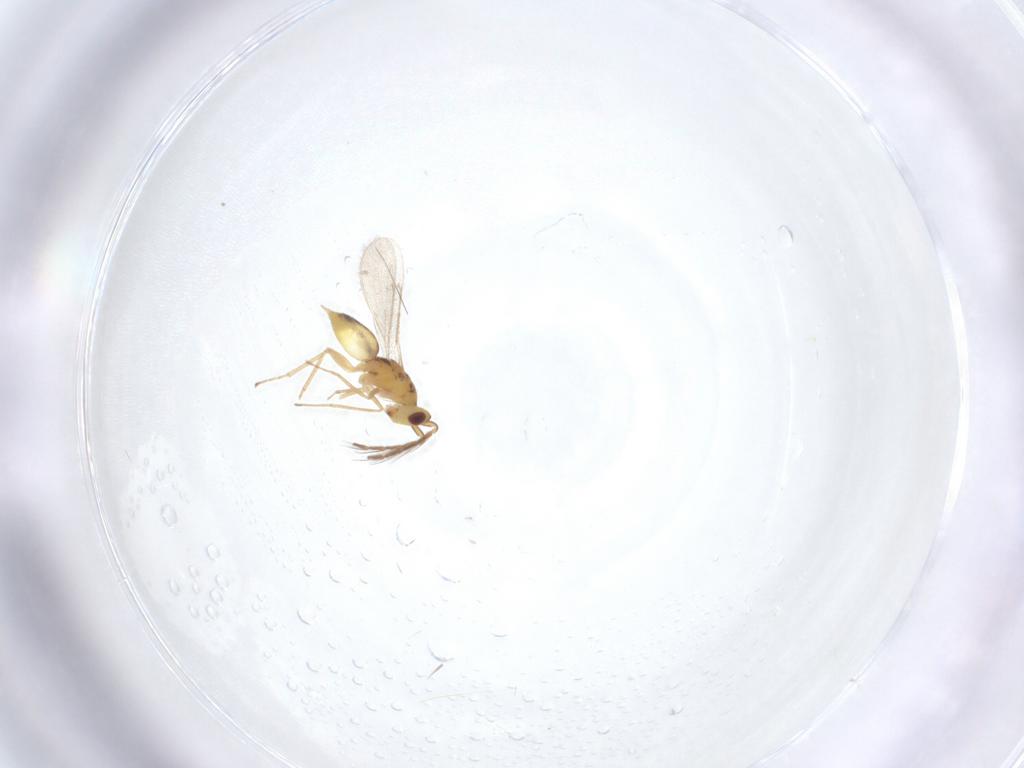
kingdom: Animalia
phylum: Arthropoda
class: Insecta
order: Hymenoptera
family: Eulophidae
